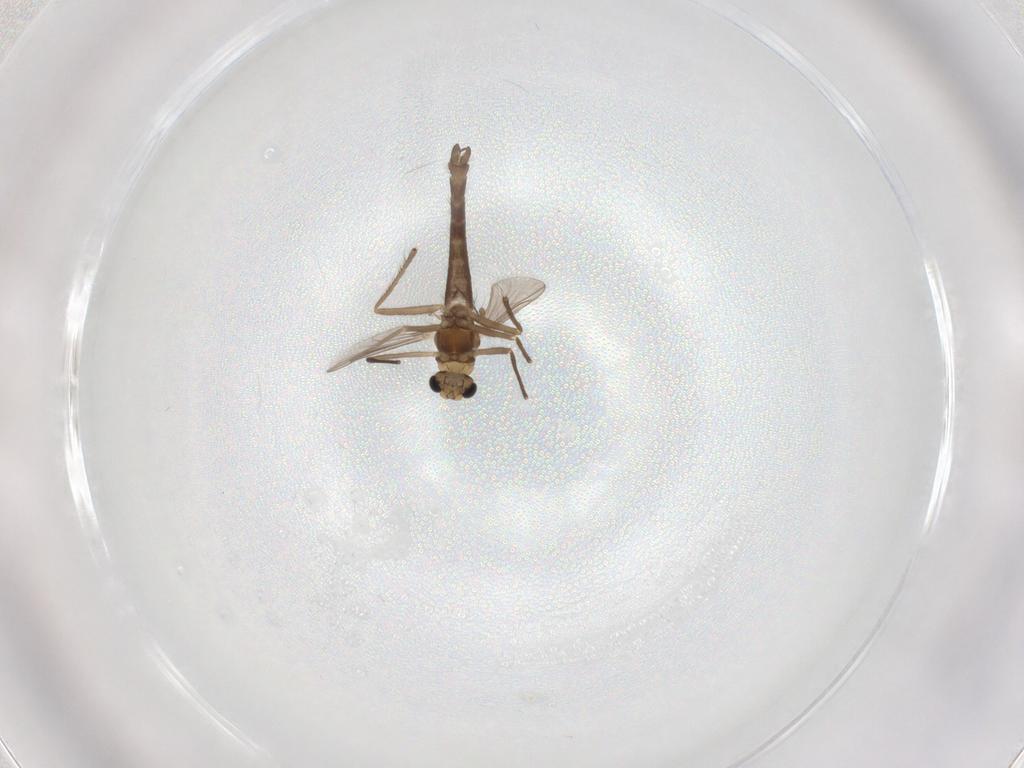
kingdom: Animalia
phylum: Arthropoda
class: Insecta
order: Diptera
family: Chironomidae
